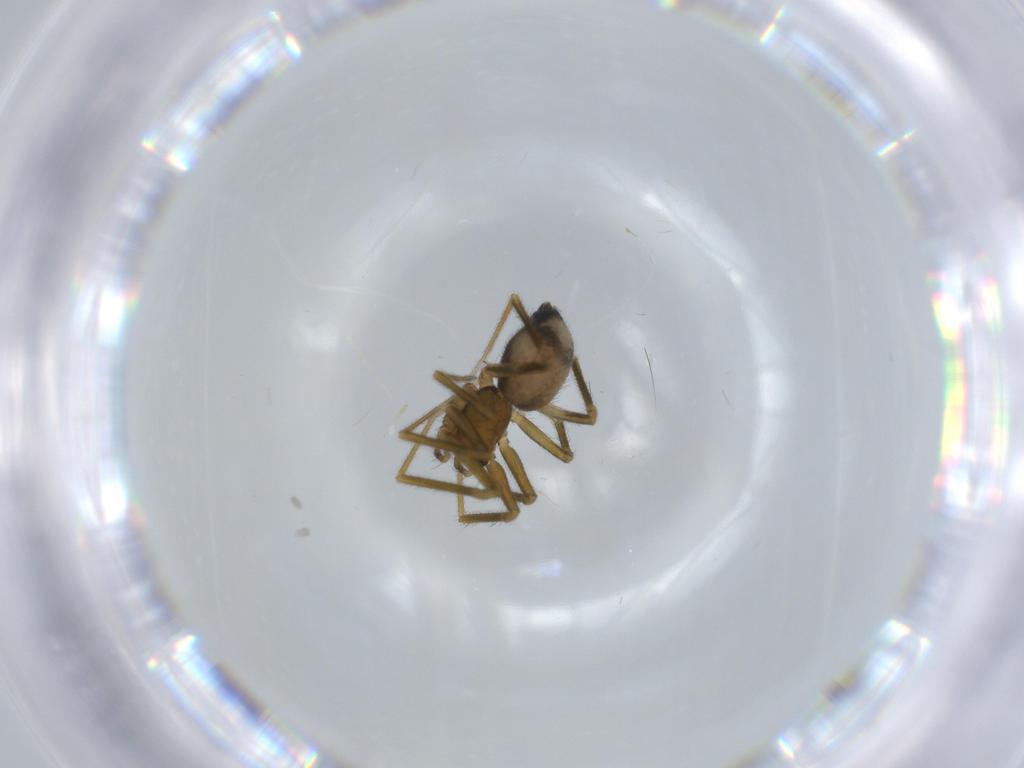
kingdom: Animalia
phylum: Arthropoda
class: Arachnida
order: Araneae
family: Linyphiidae
